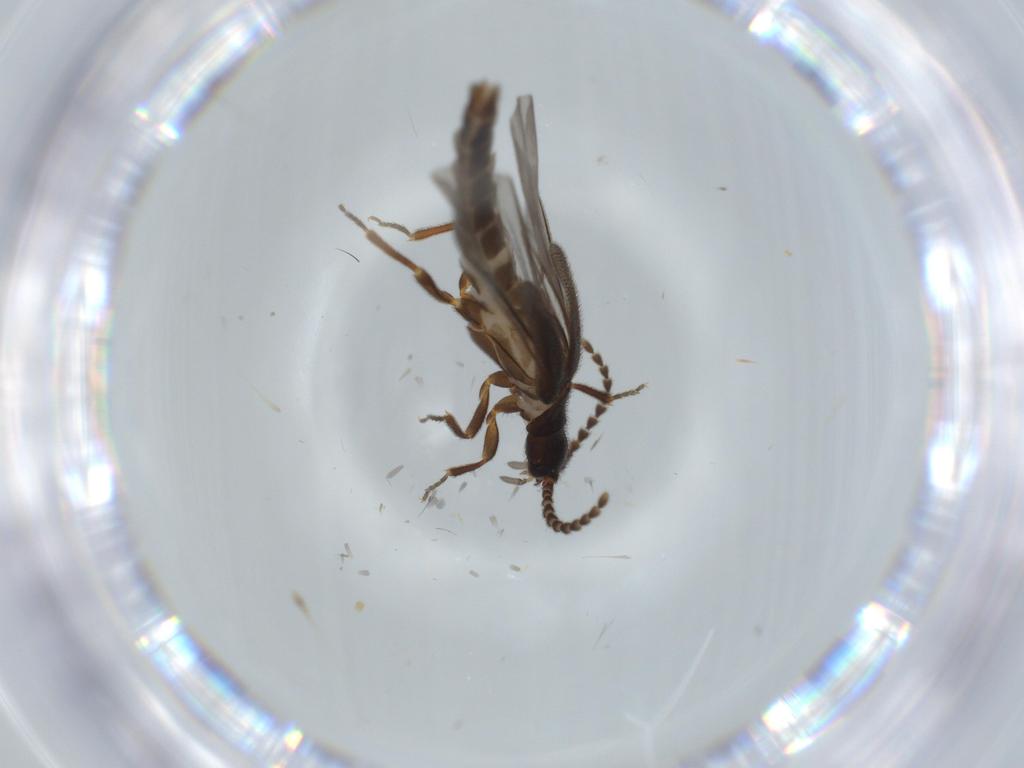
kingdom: Animalia
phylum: Arthropoda
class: Insecta
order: Coleoptera
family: Omethidae
